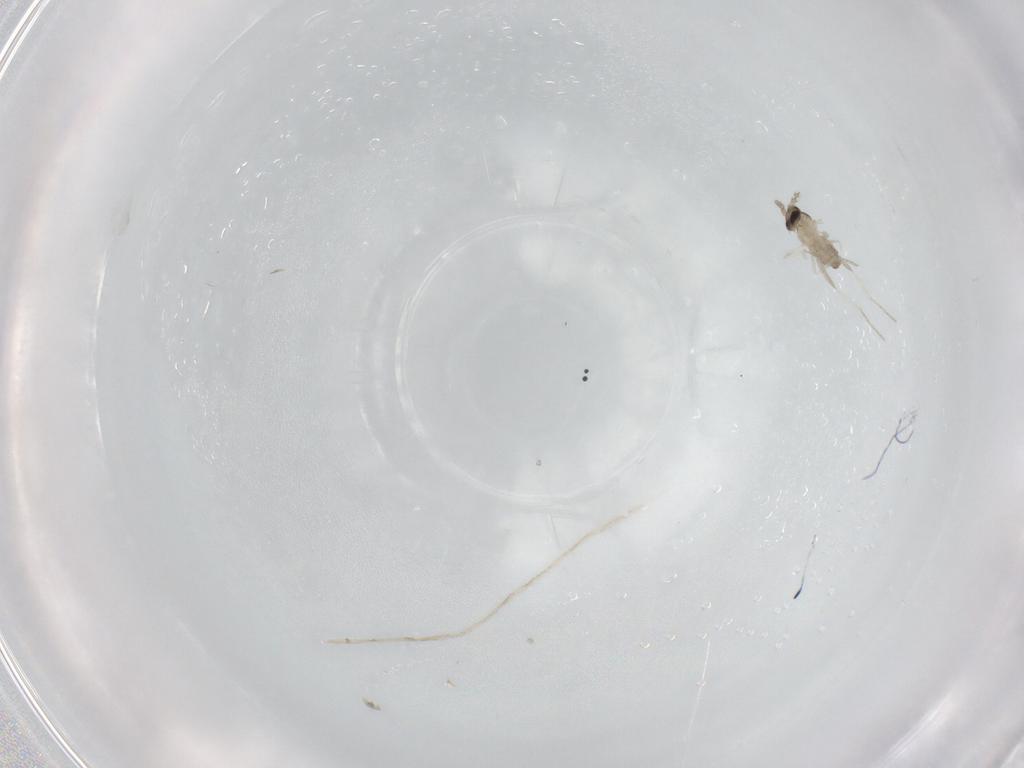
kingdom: Animalia
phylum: Arthropoda
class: Insecta
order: Diptera
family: Cecidomyiidae
